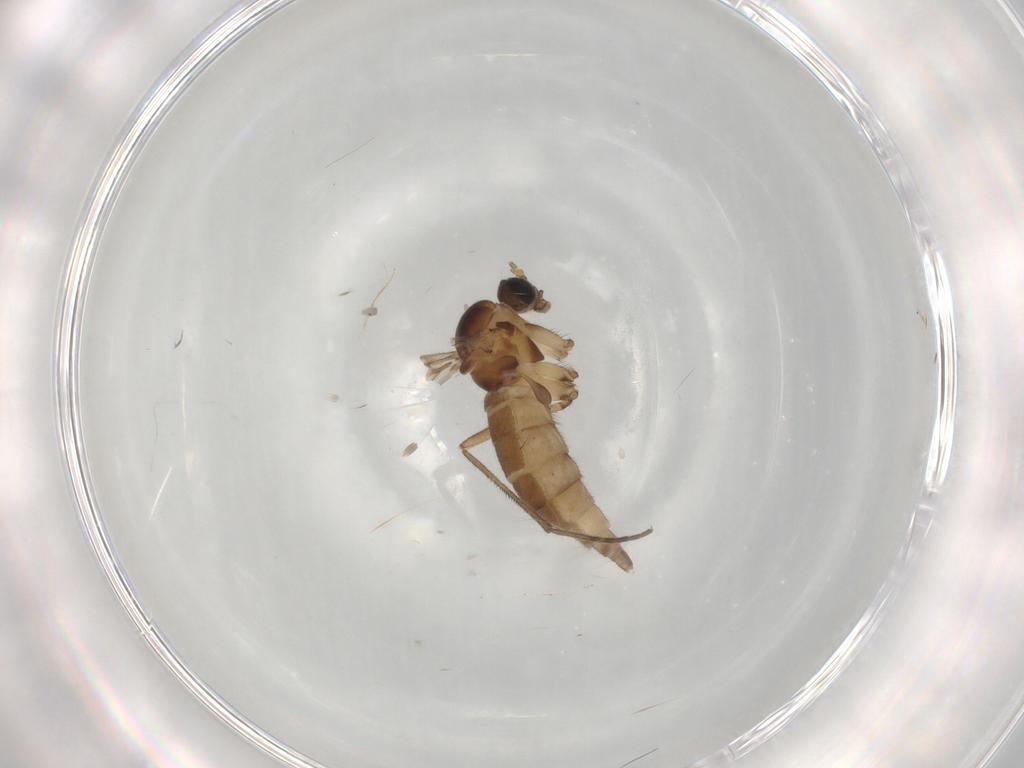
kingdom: Animalia
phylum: Arthropoda
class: Insecta
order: Diptera
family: Sciaridae
